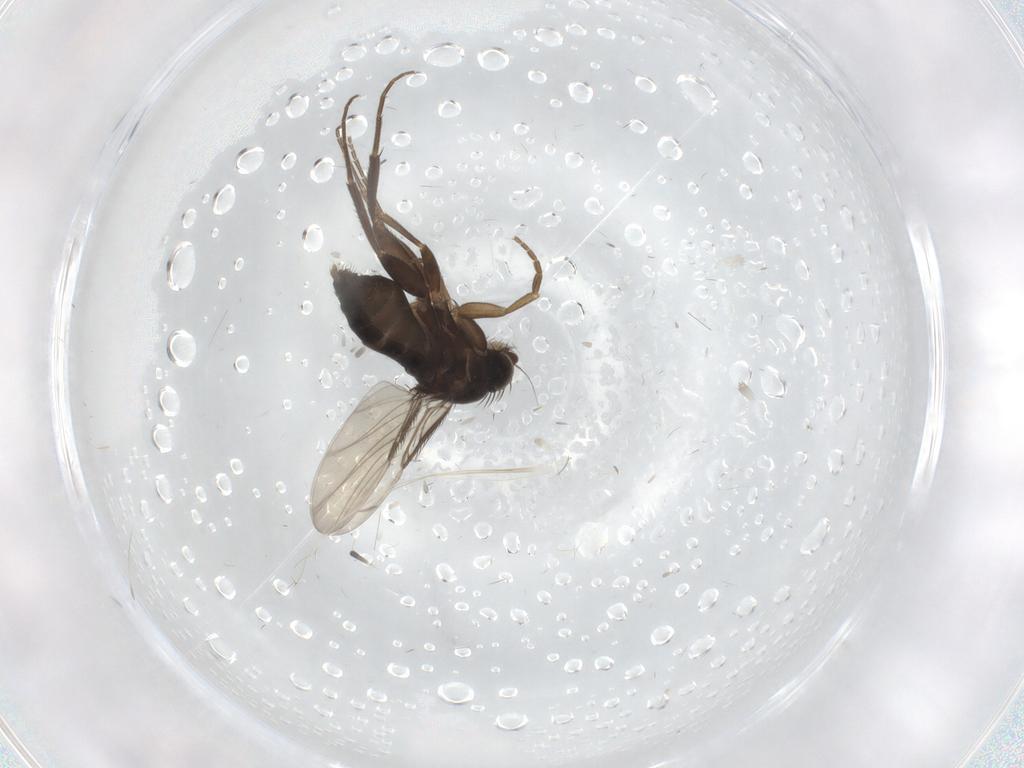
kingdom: Animalia
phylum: Arthropoda
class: Insecta
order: Diptera
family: Phoridae
